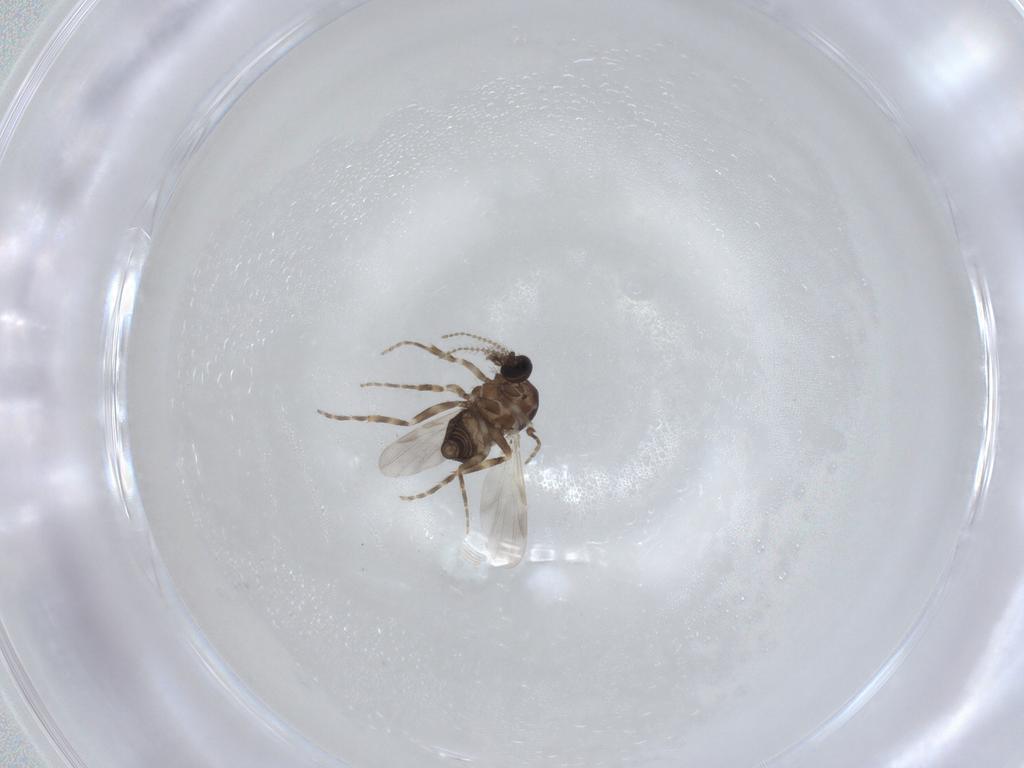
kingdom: Animalia
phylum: Arthropoda
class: Insecta
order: Diptera
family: Ceratopogonidae
